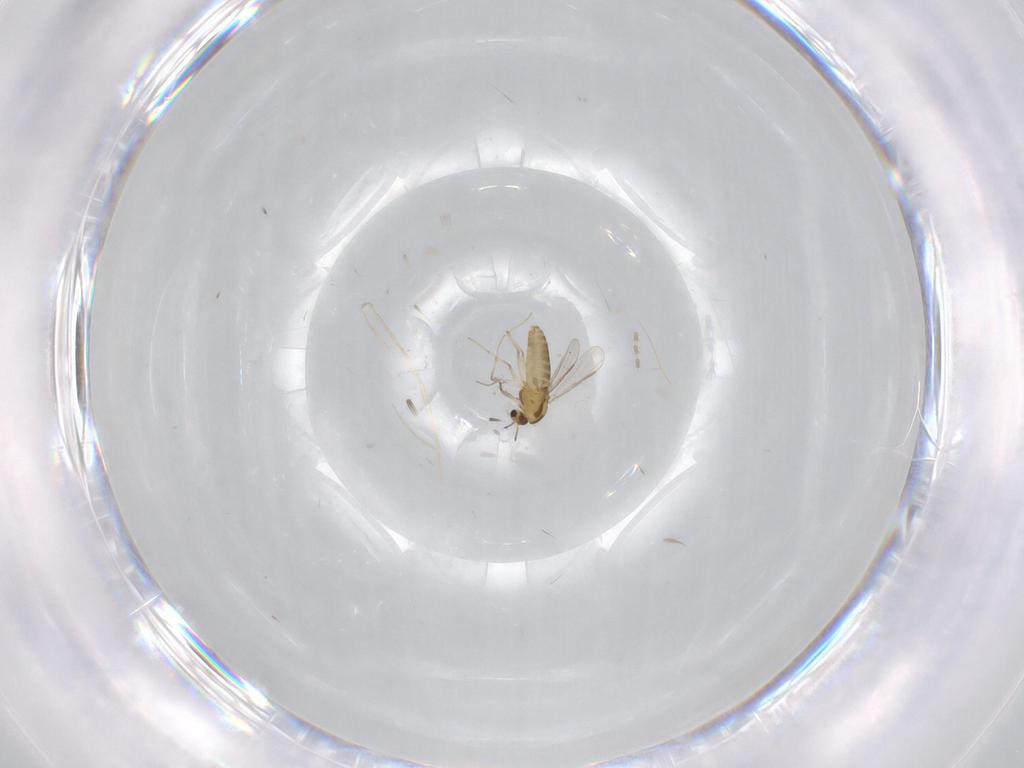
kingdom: Animalia
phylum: Arthropoda
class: Insecta
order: Diptera
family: Chironomidae
